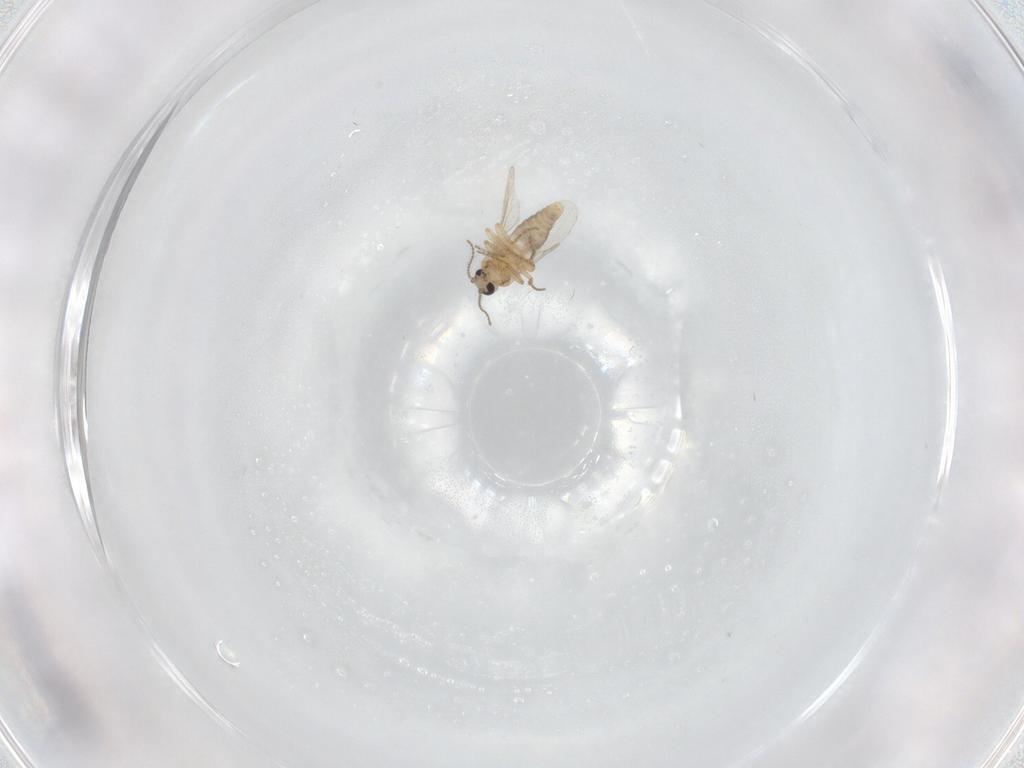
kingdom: Animalia
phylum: Arthropoda
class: Insecta
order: Diptera
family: Ceratopogonidae
